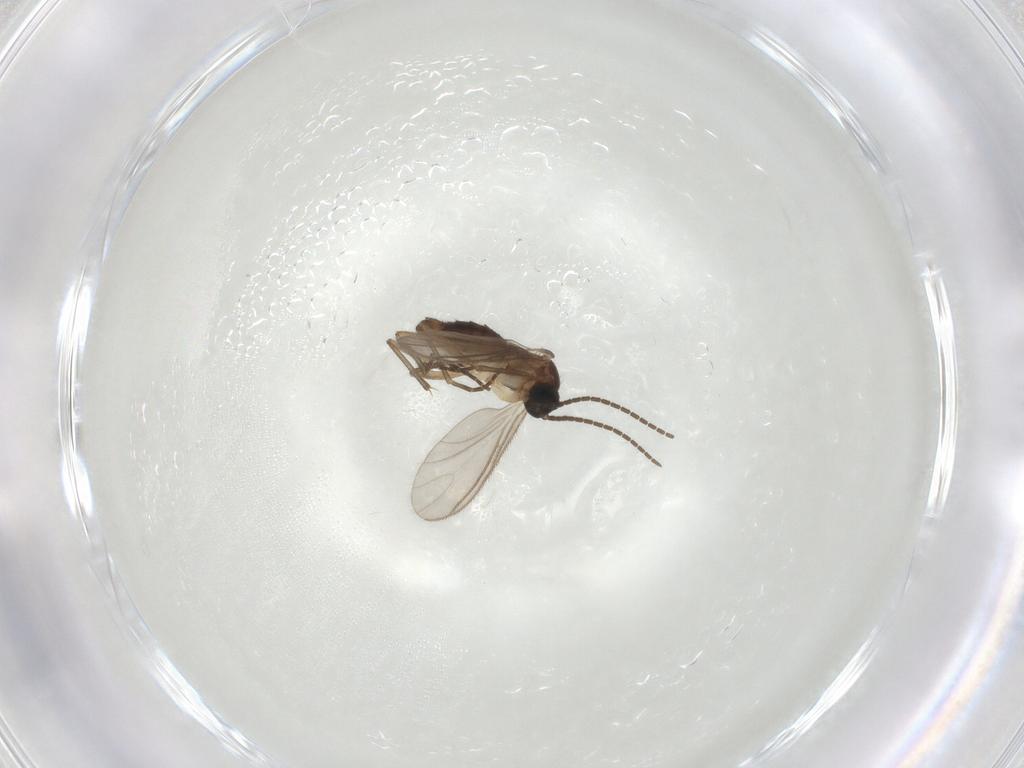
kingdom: Animalia
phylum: Arthropoda
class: Insecta
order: Diptera
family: Sciaridae
